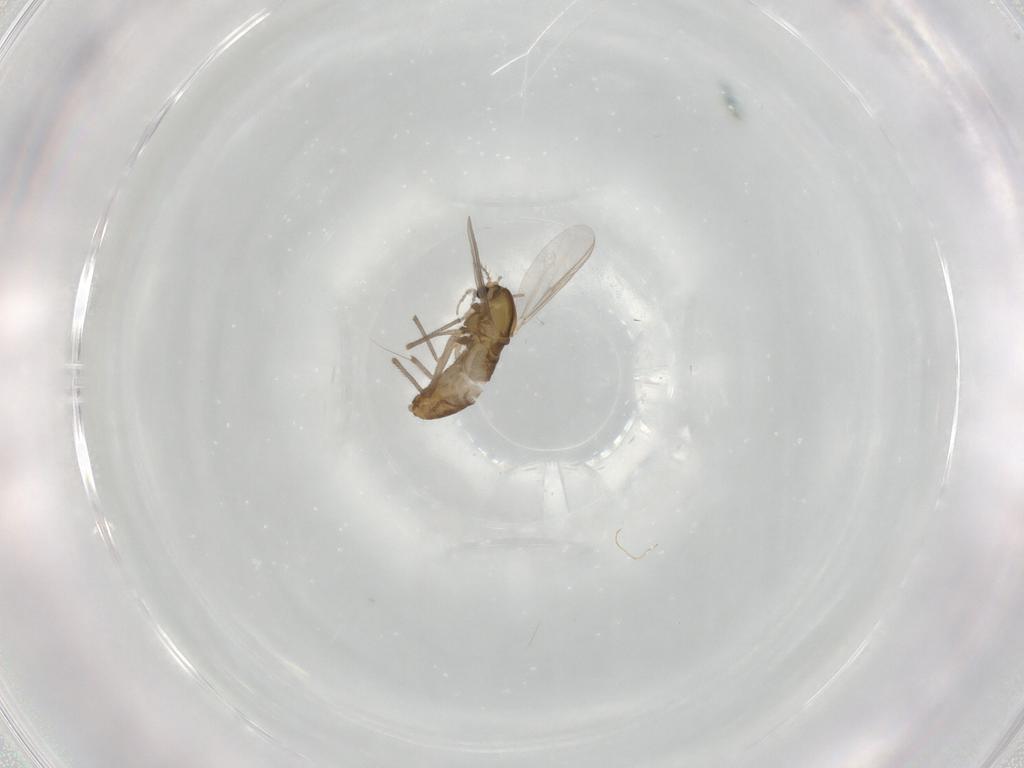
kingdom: Animalia
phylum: Arthropoda
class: Insecta
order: Diptera
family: Chironomidae
